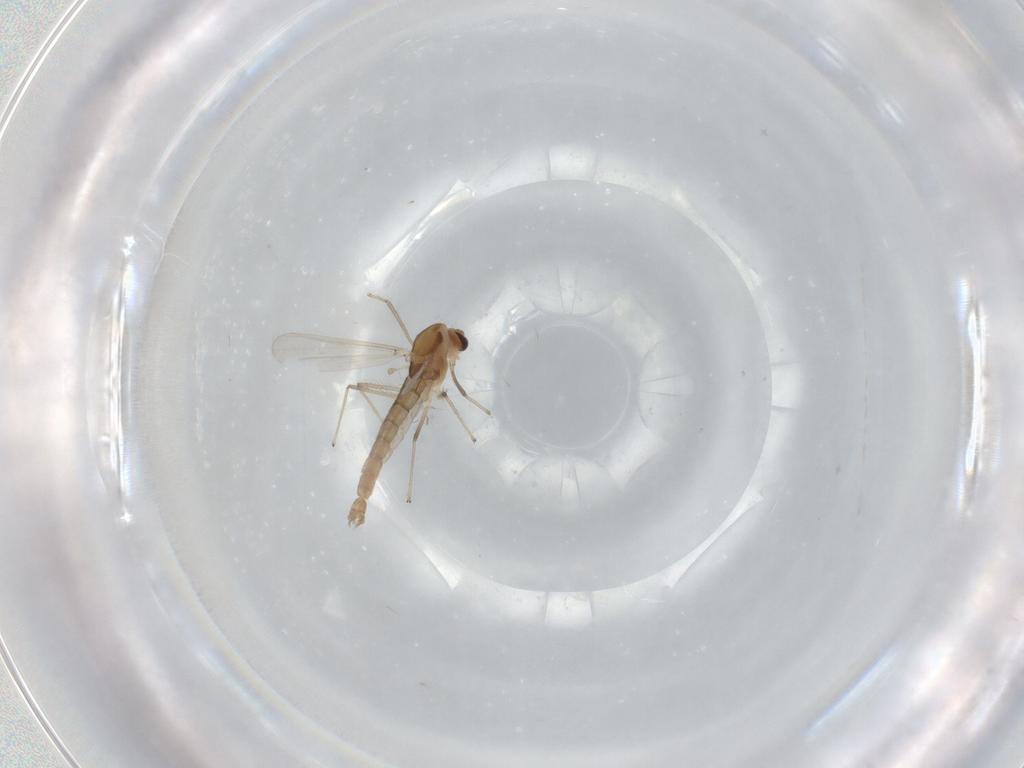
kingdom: Animalia
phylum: Arthropoda
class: Insecta
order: Diptera
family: Chironomidae
